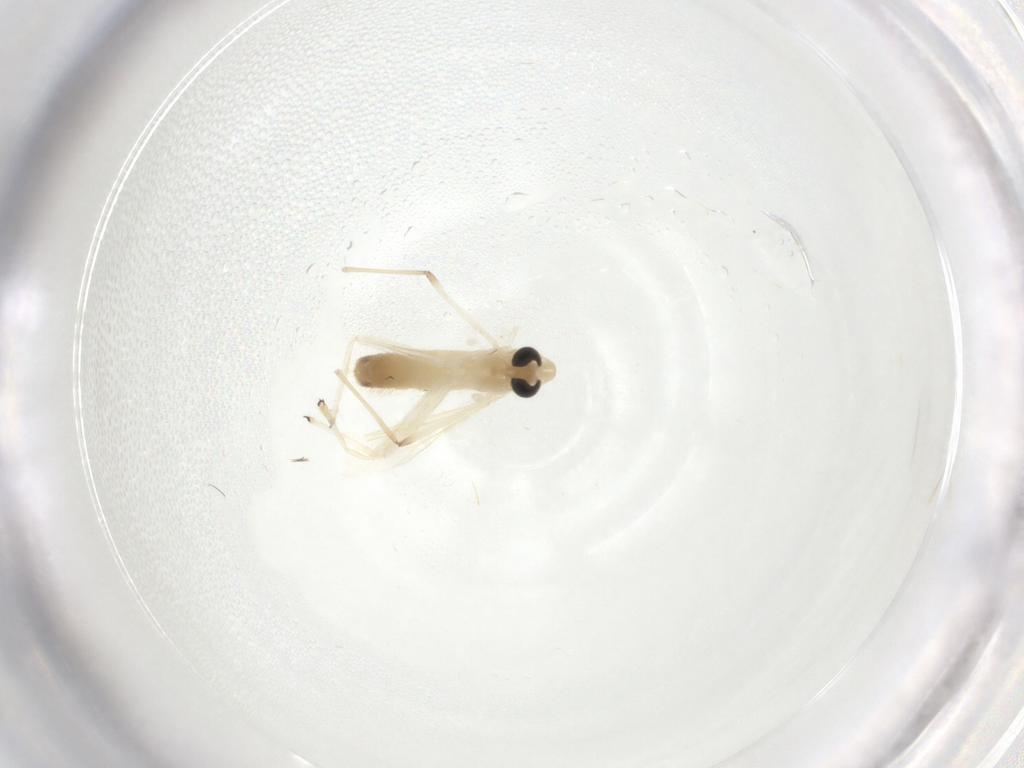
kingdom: Animalia
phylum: Arthropoda
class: Insecta
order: Diptera
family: Chironomidae
